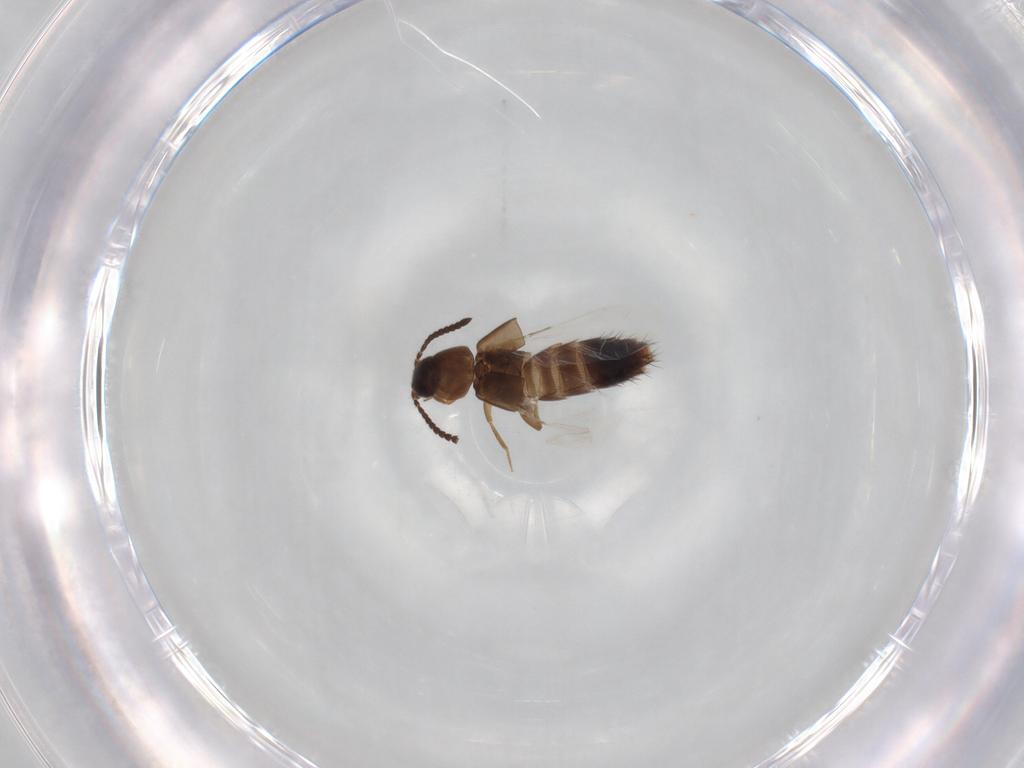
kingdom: Animalia
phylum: Arthropoda
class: Insecta
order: Coleoptera
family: Staphylinidae
